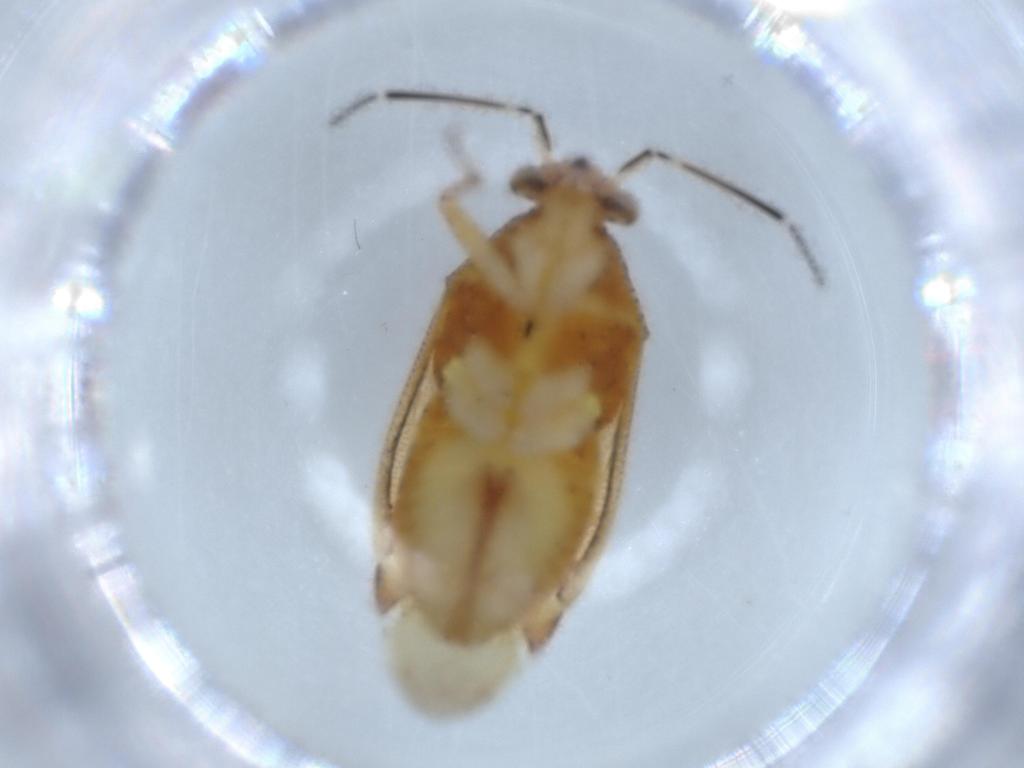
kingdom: Animalia
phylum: Arthropoda
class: Insecta
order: Hemiptera
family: Miridae
